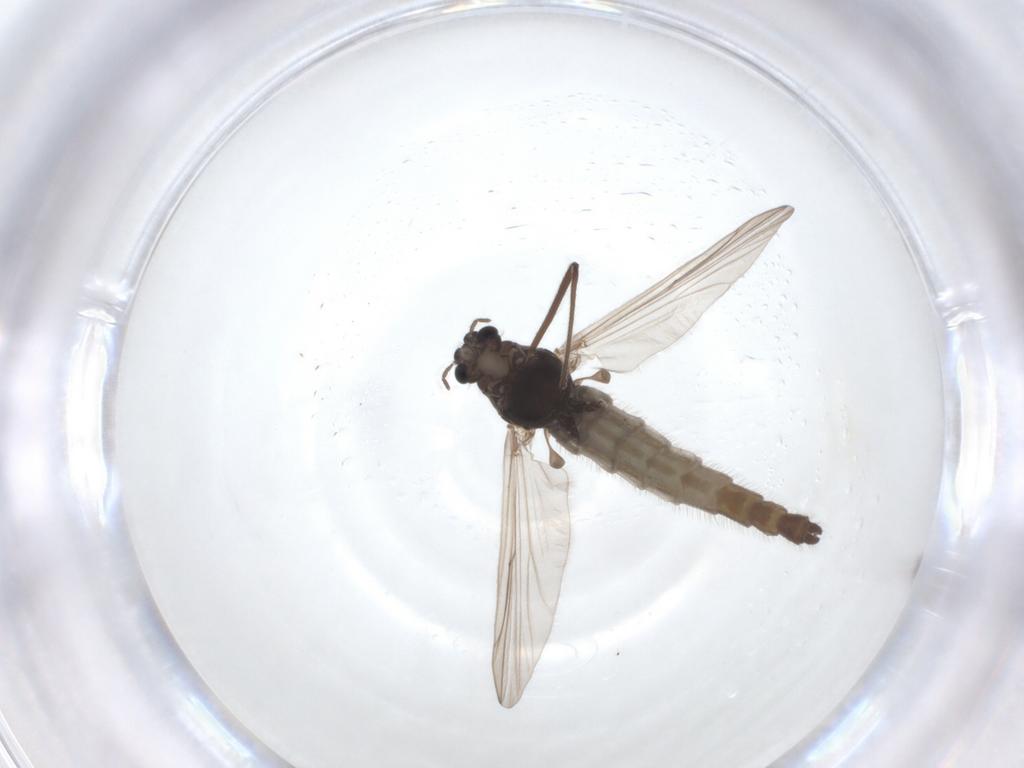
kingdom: Animalia
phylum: Arthropoda
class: Insecta
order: Diptera
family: Chironomidae
